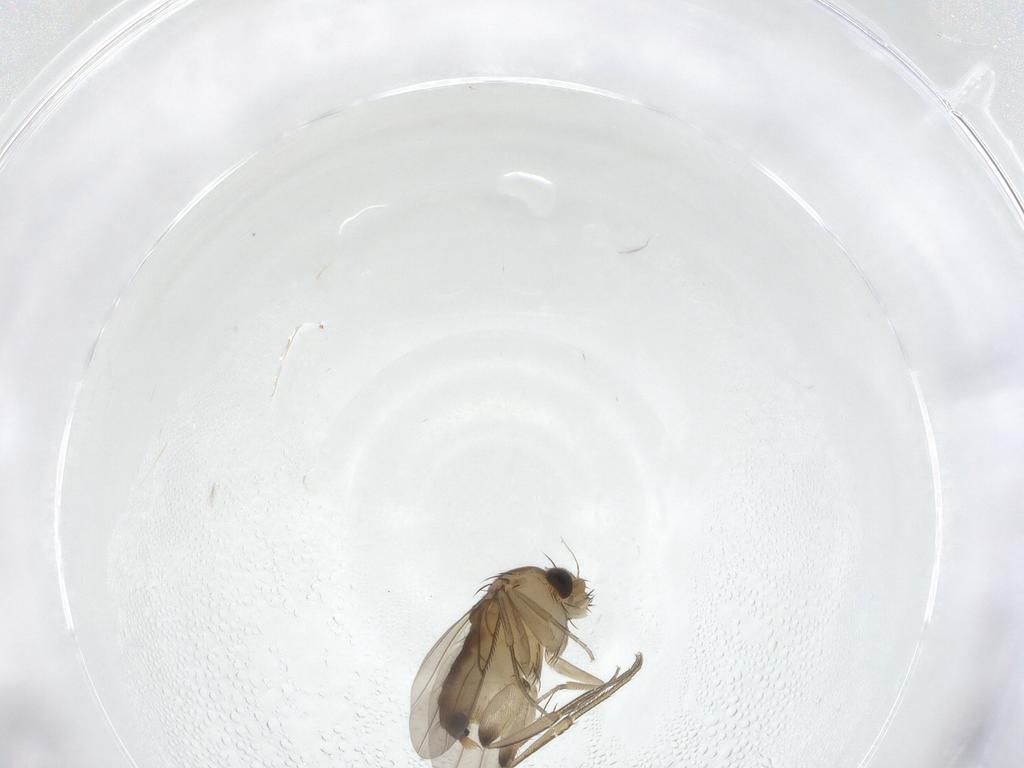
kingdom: Animalia
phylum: Arthropoda
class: Insecta
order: Diptera
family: Phoridae
